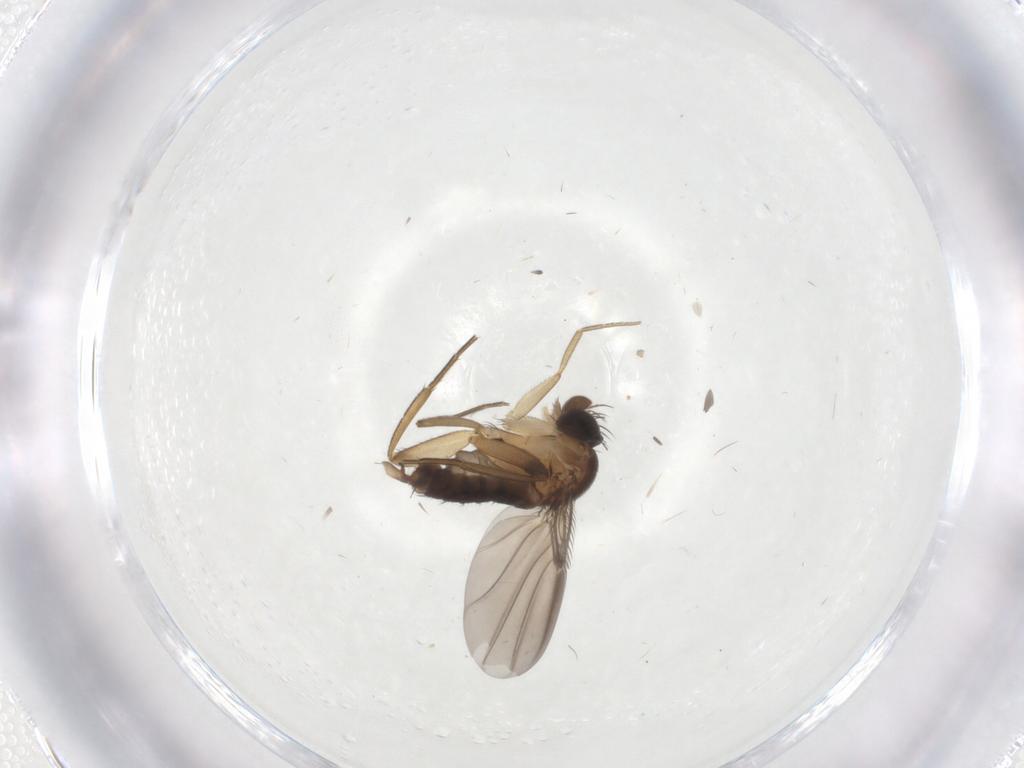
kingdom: Animalia
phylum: Arthropoda
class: Insecta
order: Diptera
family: Phoridae
